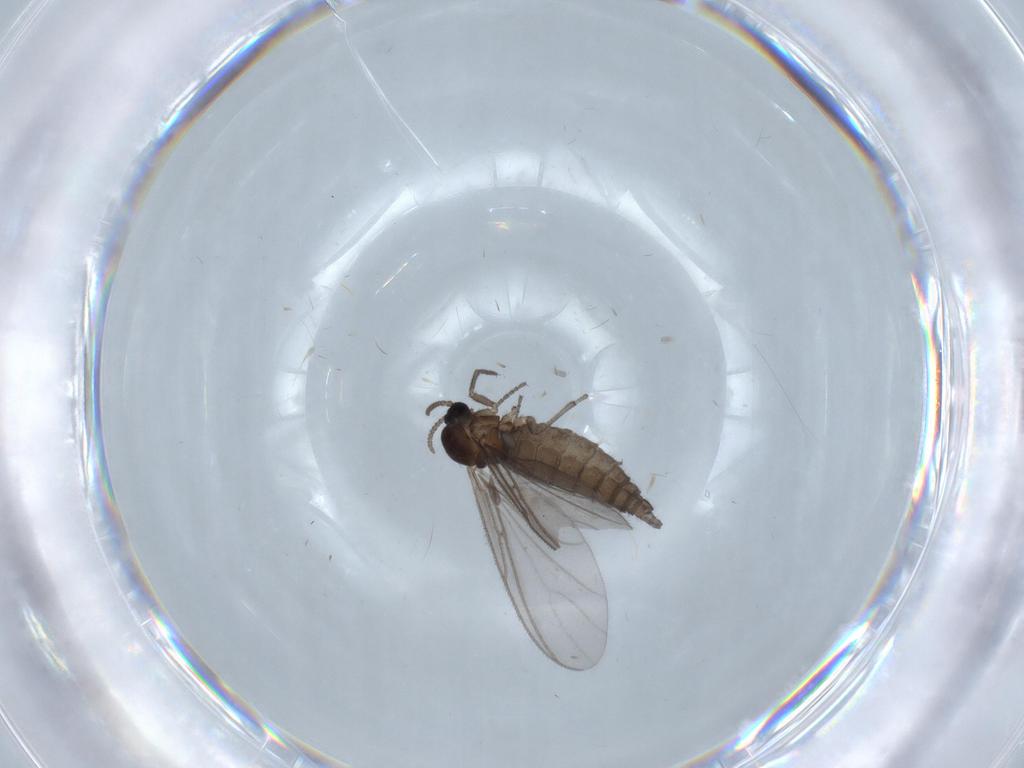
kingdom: Animalia
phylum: Arthropoda
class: Insecta
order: Diptera
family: Sciaridae
